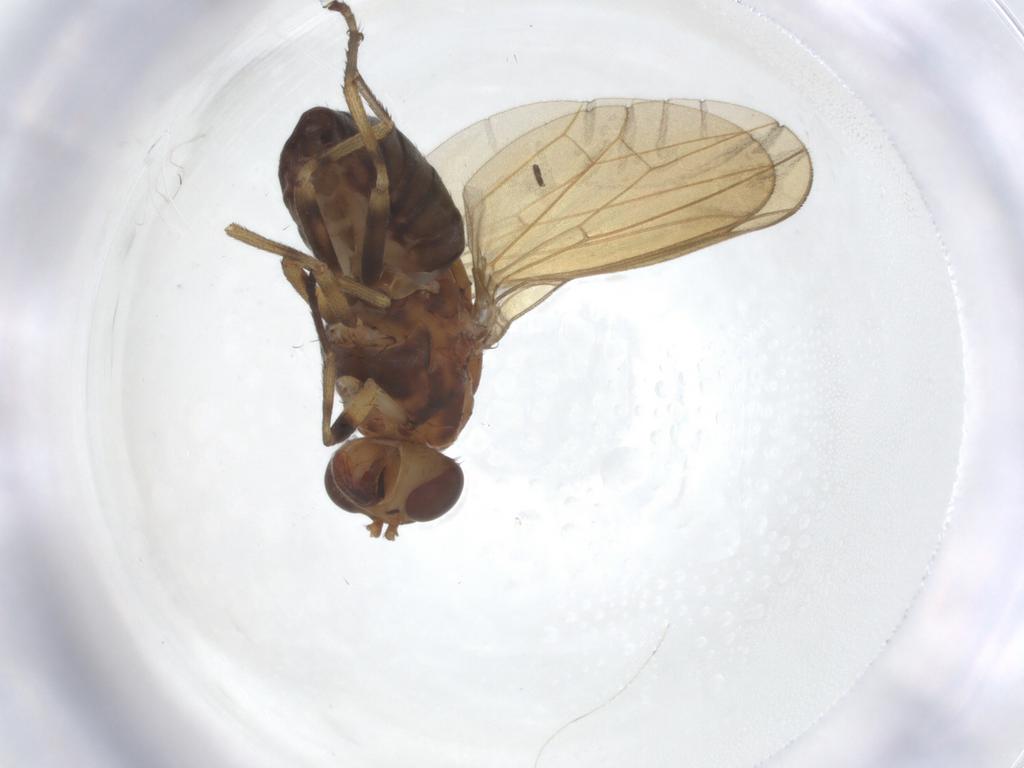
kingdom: Animalia
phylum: Arthropoda
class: Insecta
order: Diptera
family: Lauxaniidae
